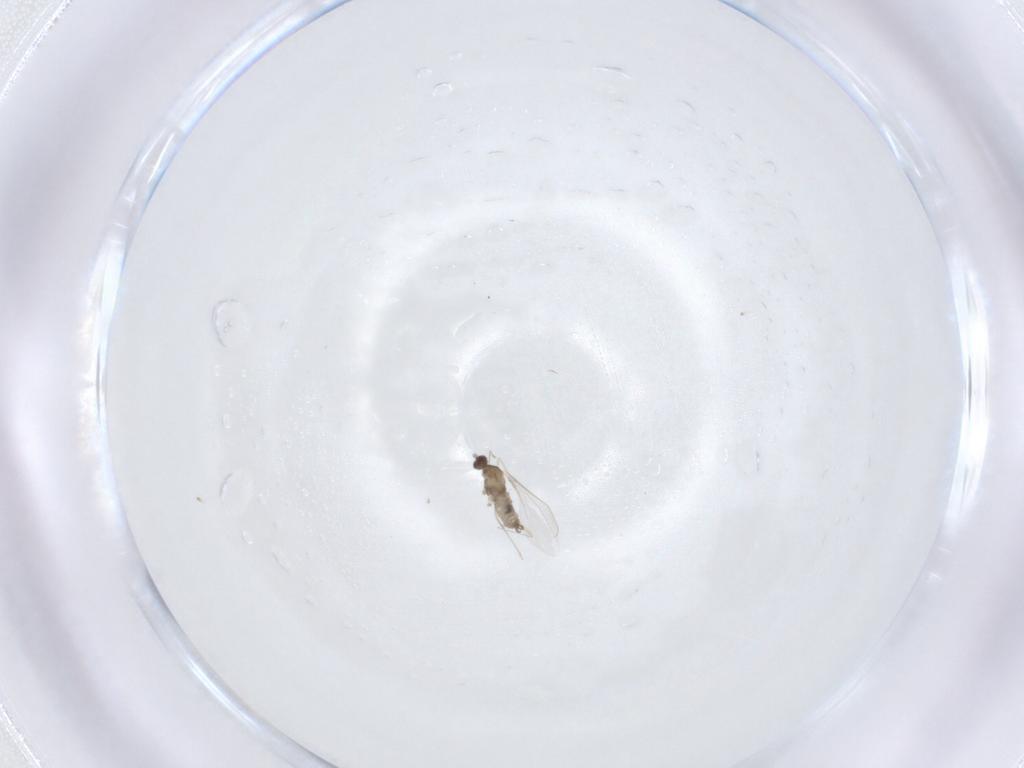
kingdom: Animalia
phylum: Arthropoda
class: Insecta
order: Diptera
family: Cecidomyiidae
